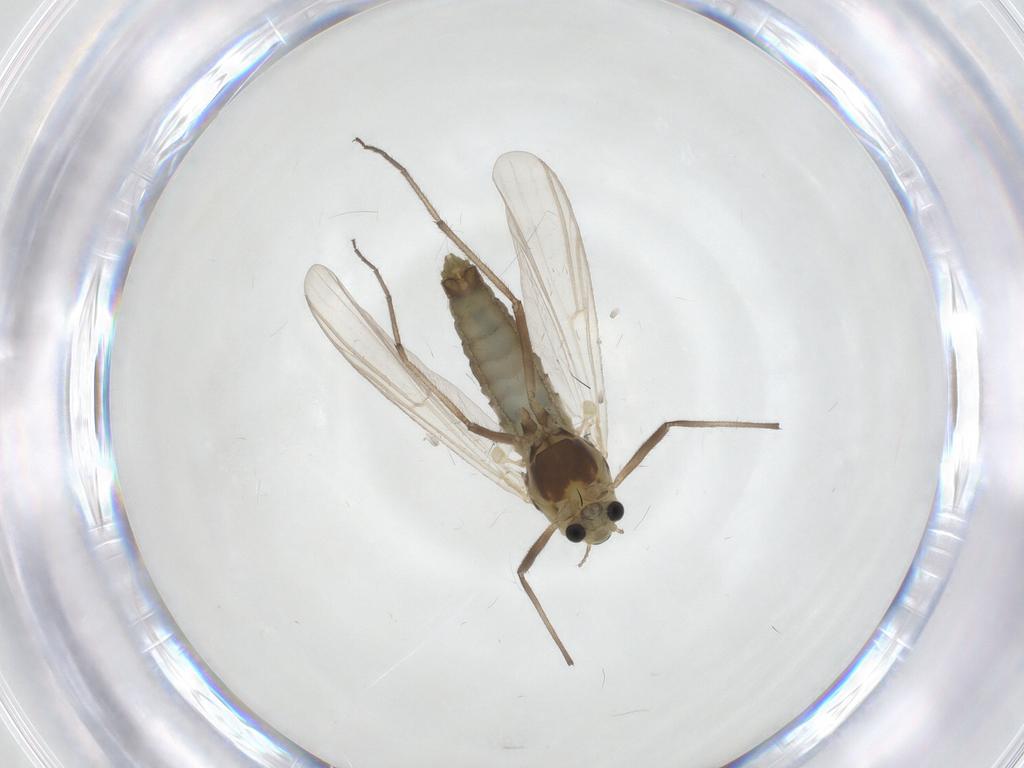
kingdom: Animalia
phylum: Arthropoda
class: Insecta
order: Diptera
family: Chironomidae
